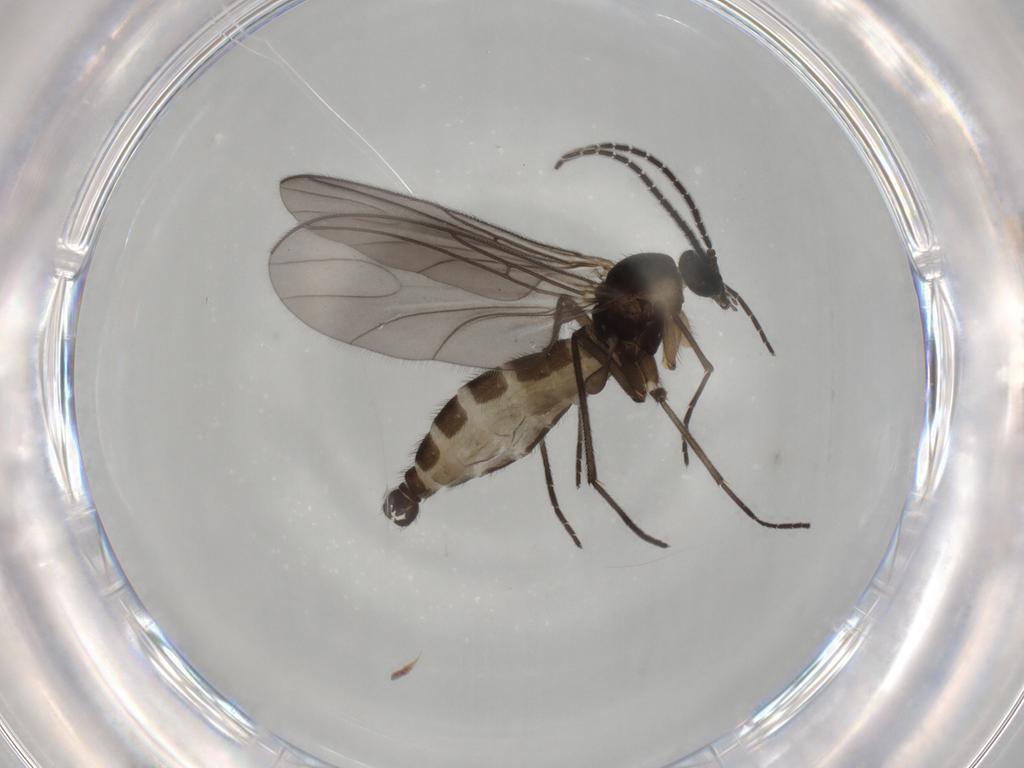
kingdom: Animalia
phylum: Arthropoda
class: Insecta
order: Diptera
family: Sciaridae
